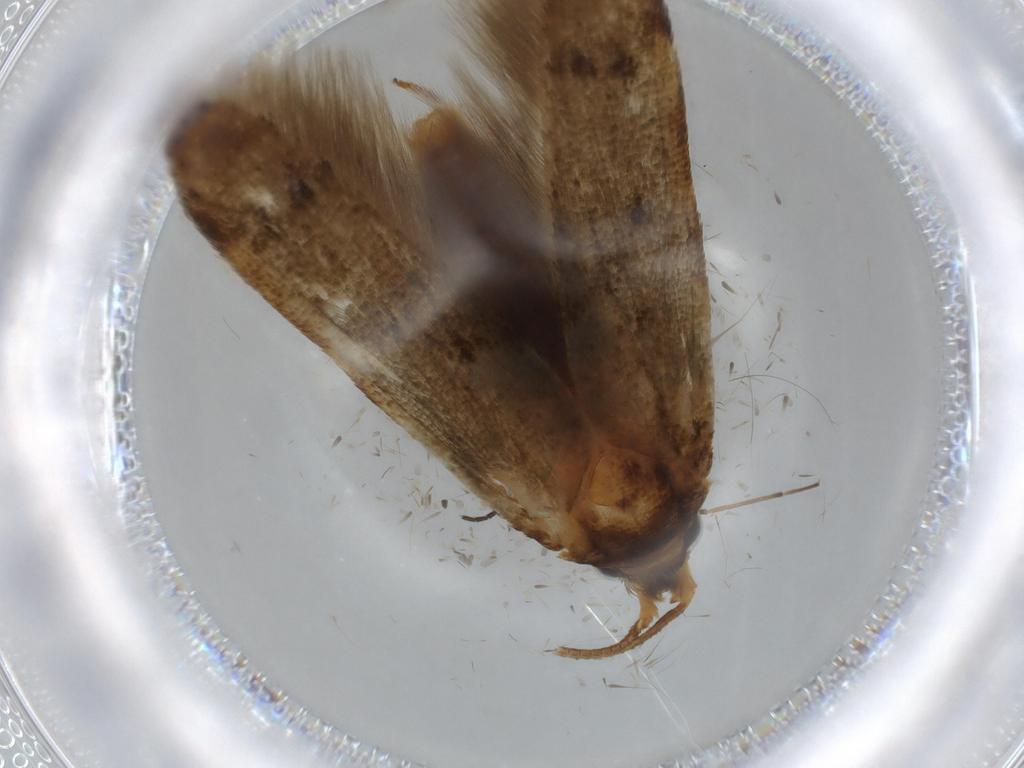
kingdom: Animalia
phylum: Arthropoda
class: Insecta
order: Lepidoptera
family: Cosmopterigidae
